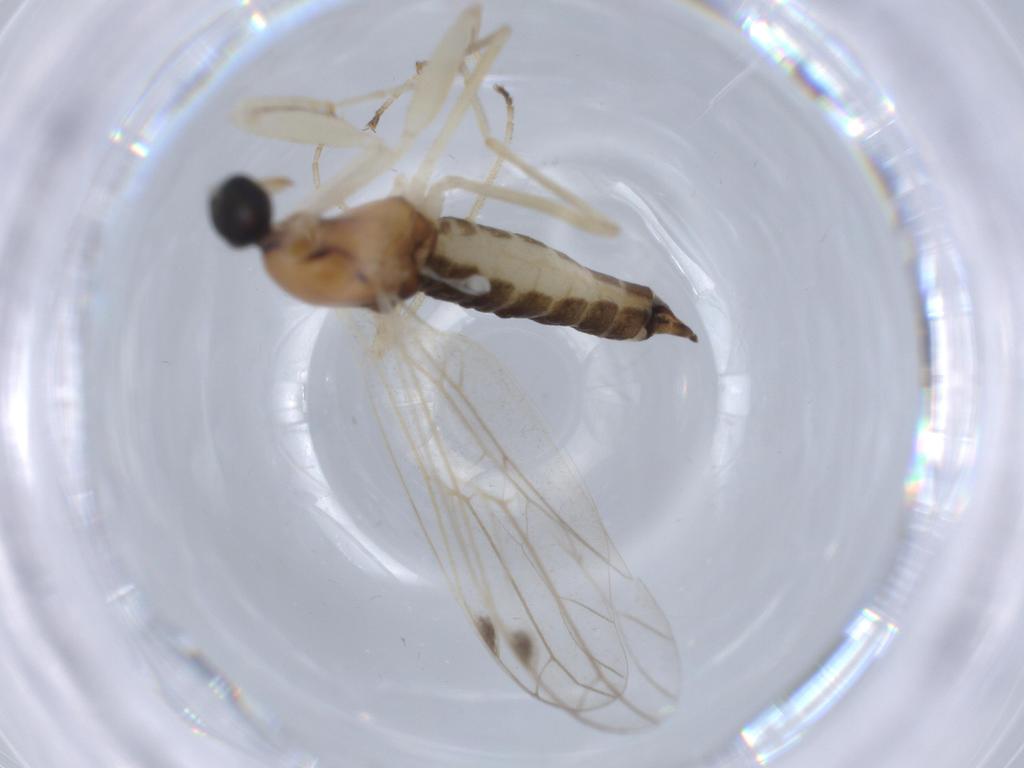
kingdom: Animalia
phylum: Arthropoda
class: Insecta
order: Diptera
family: Empididae
